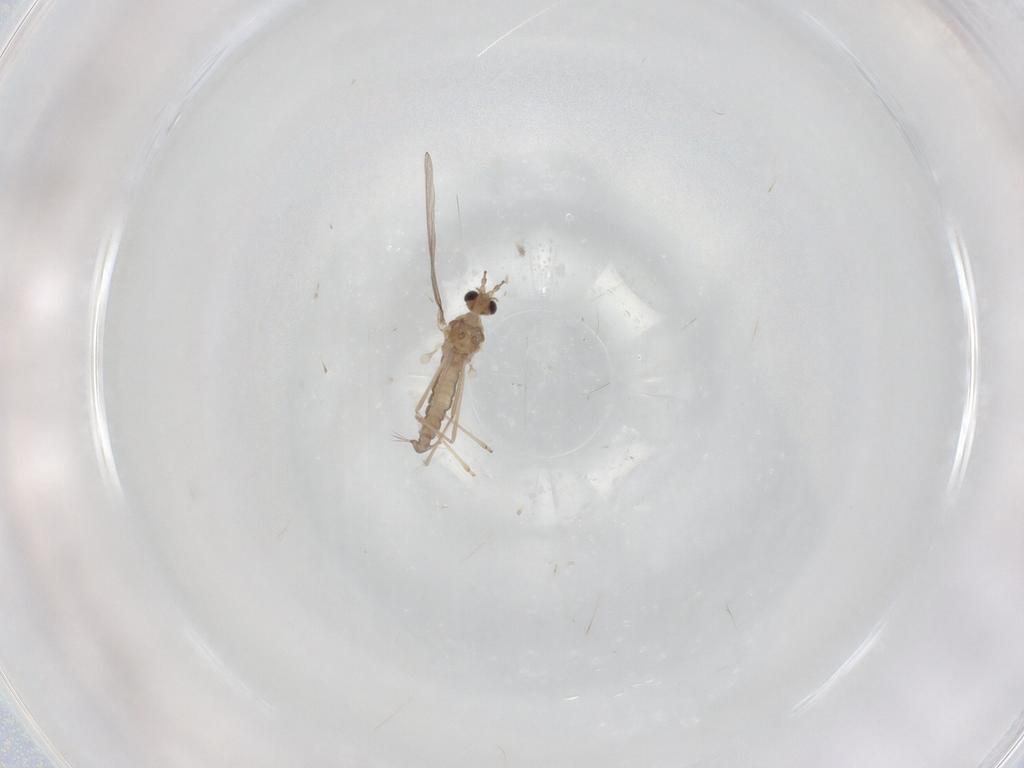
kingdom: Animalia
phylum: Arthropoda
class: Insecta
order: Diptera
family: Cecidomyiidae
